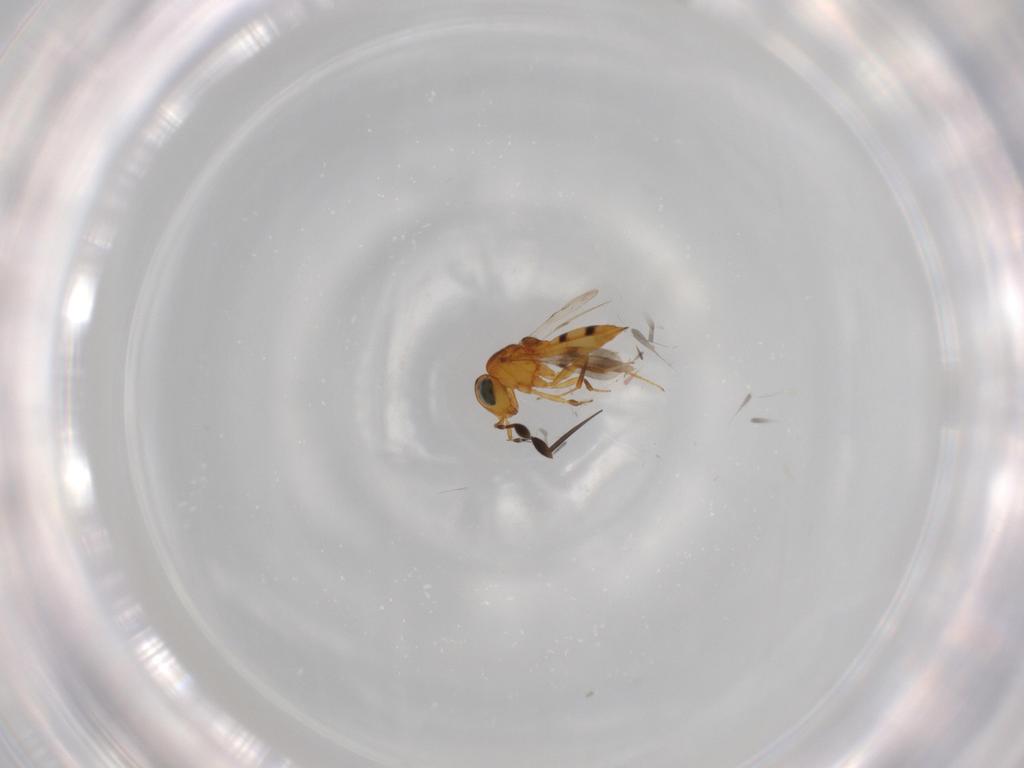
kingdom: Animalia
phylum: Arthropoda
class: Insecta
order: Hymenoptera
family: Scelionidae
